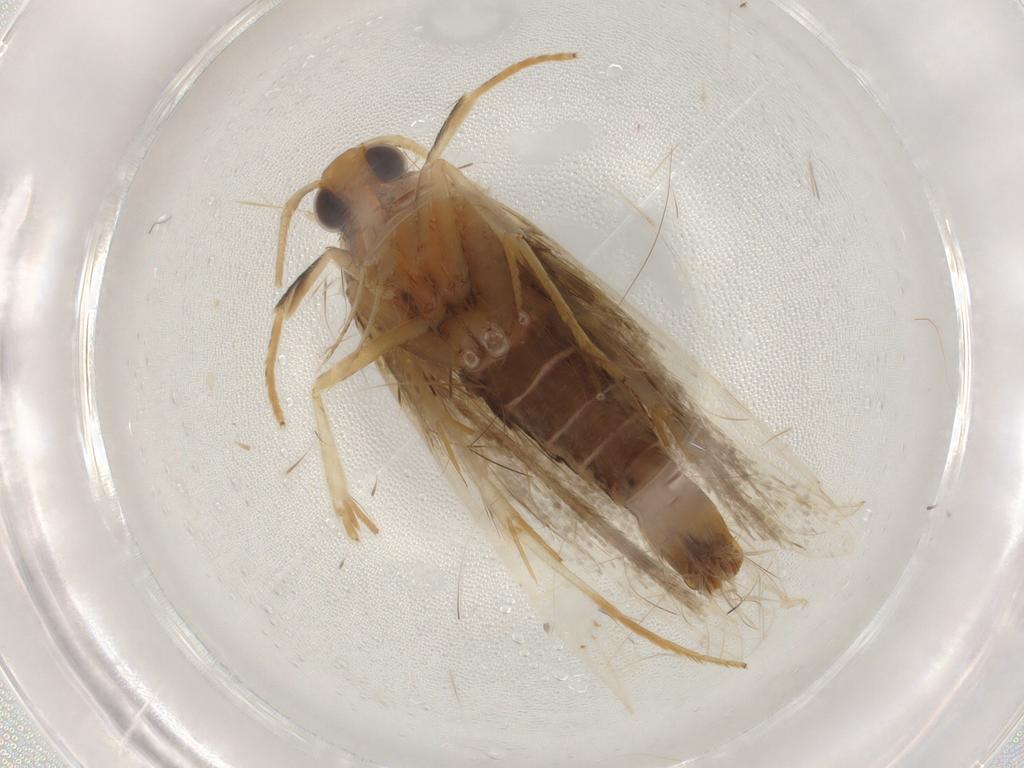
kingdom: Animalia
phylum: Arthropoda
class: Insecta
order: Lepidoptera
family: Lecithoceridae
